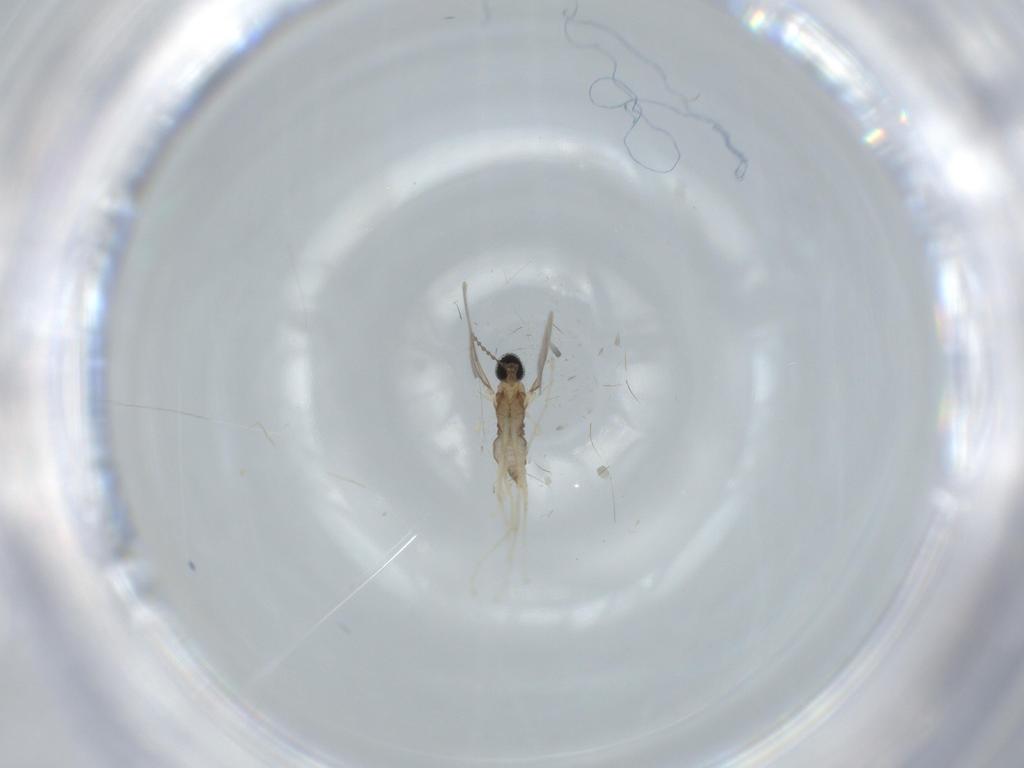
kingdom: Animalia
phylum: Arthropoda
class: Insecta
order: Diptera
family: Cecidomyiidae
